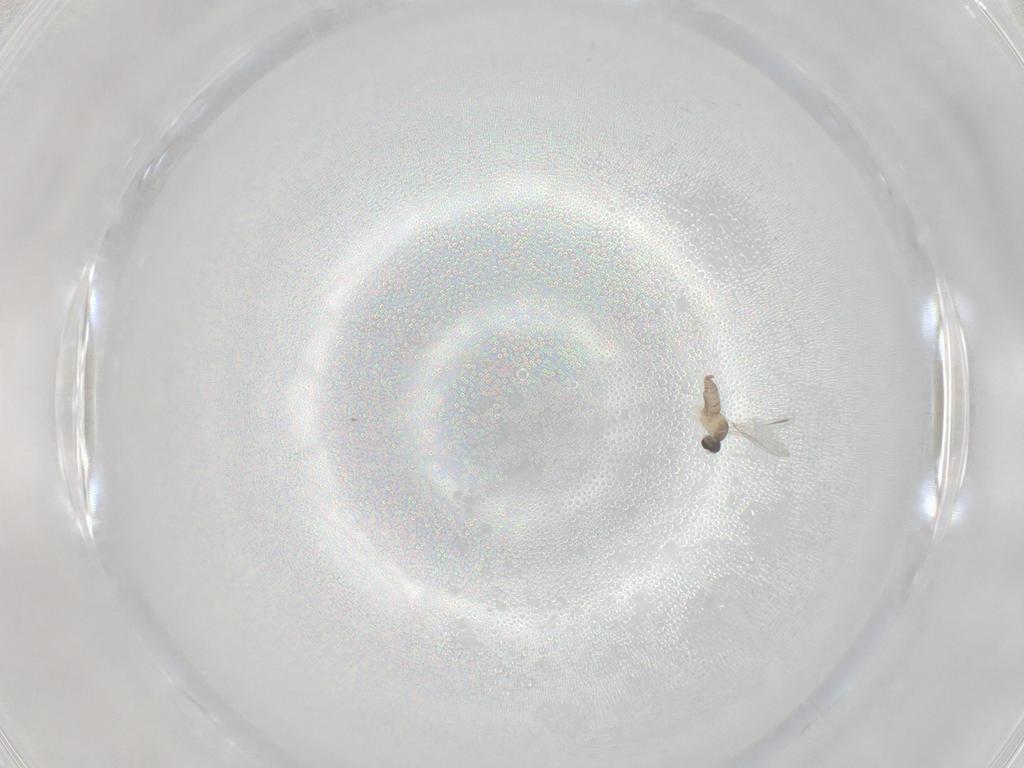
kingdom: Animalia
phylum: Arthropoda
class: Insecta
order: Diptera
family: Cecidomyiidae
